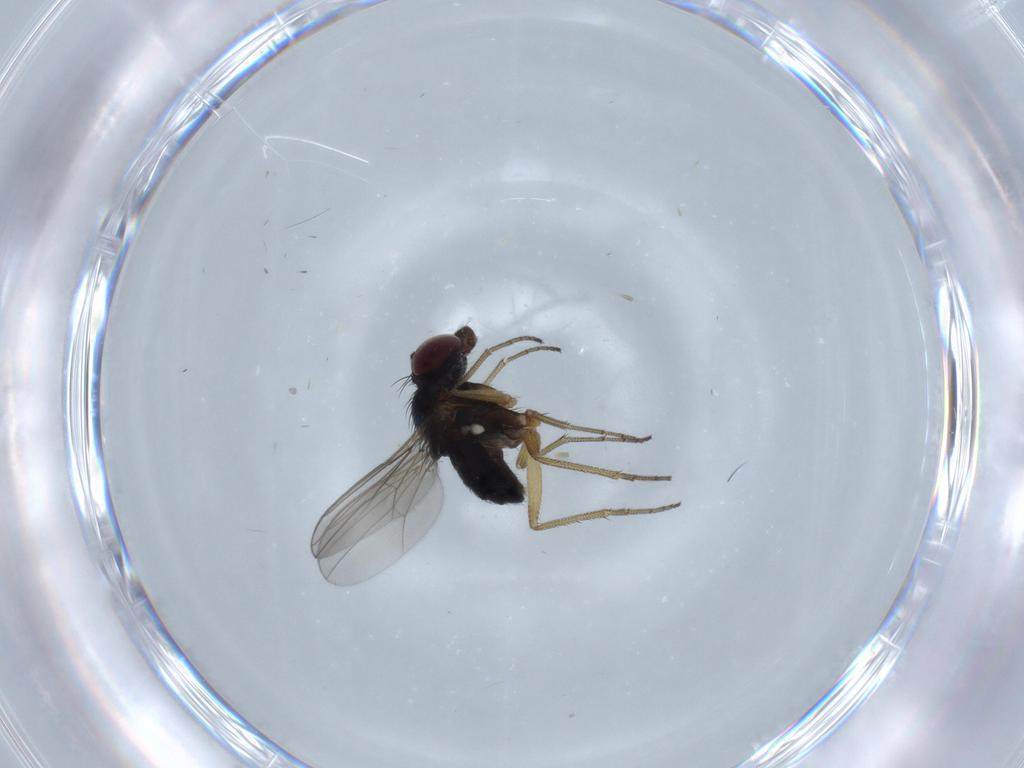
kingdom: Animalia
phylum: Arthropoda
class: Insecta
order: Diptera
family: Dolichopodidae
